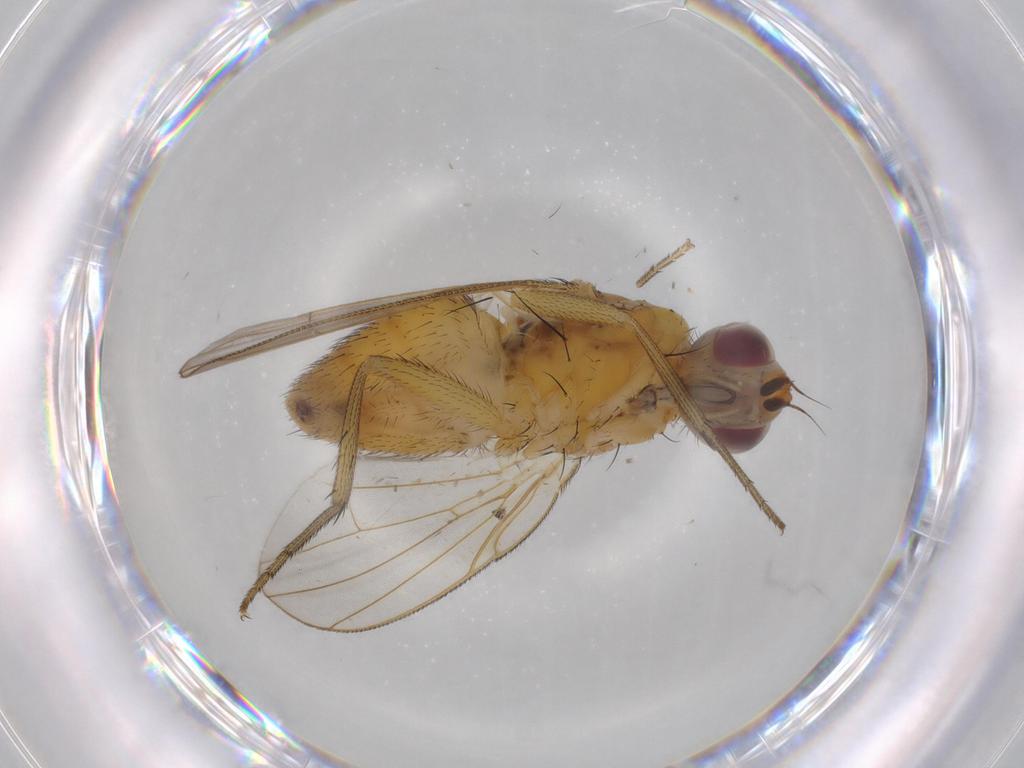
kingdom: Animalia
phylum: Arthropoda
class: Insecta
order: Diptera
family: Muscidae
